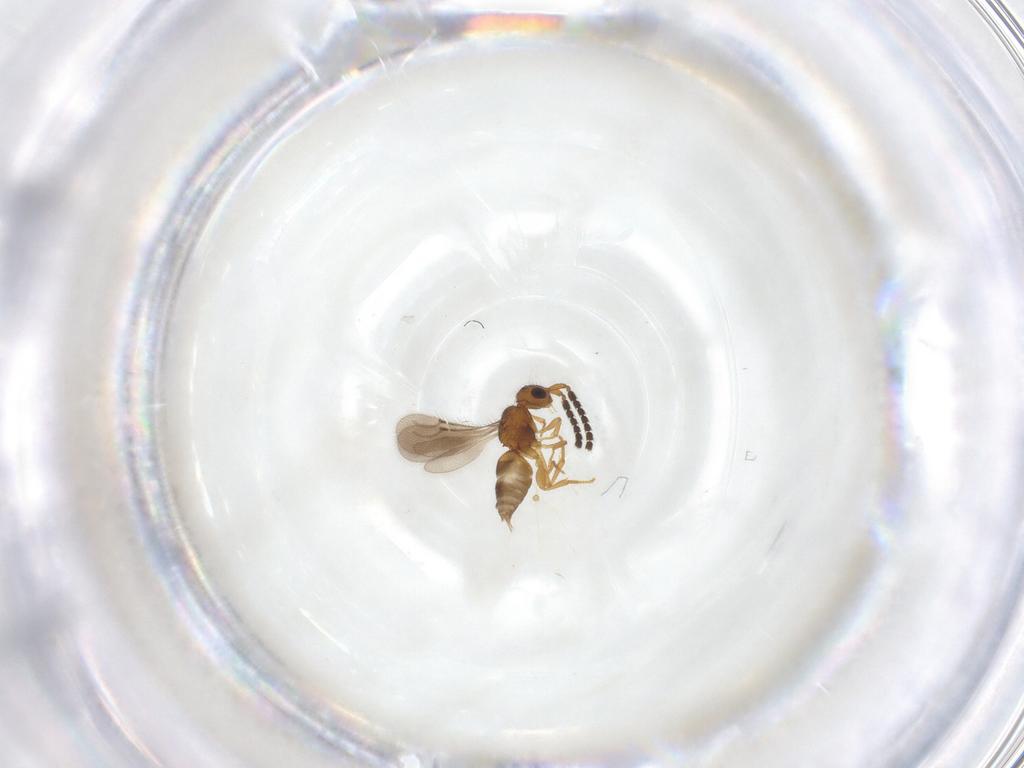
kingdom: Animalia
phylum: Arthropoda
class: Insecta
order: Hymenoptera
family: Ceraphronidae
